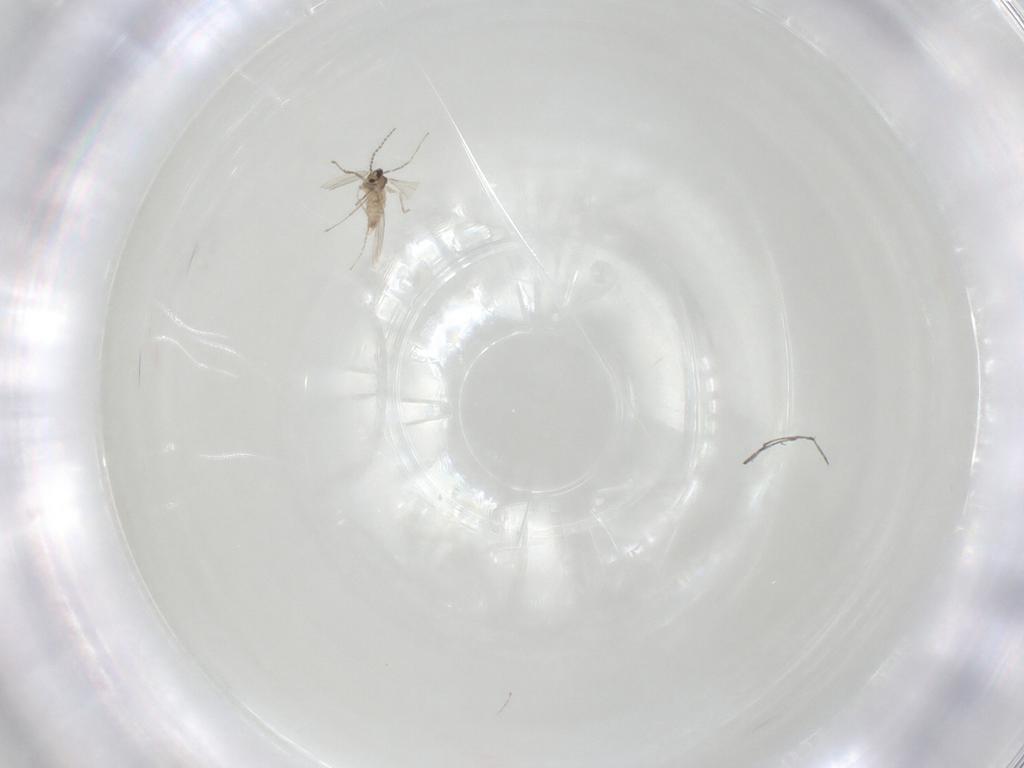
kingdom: Animalia
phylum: Arthropoda
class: Insecta
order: Diptera
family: Cecidomyiidae
